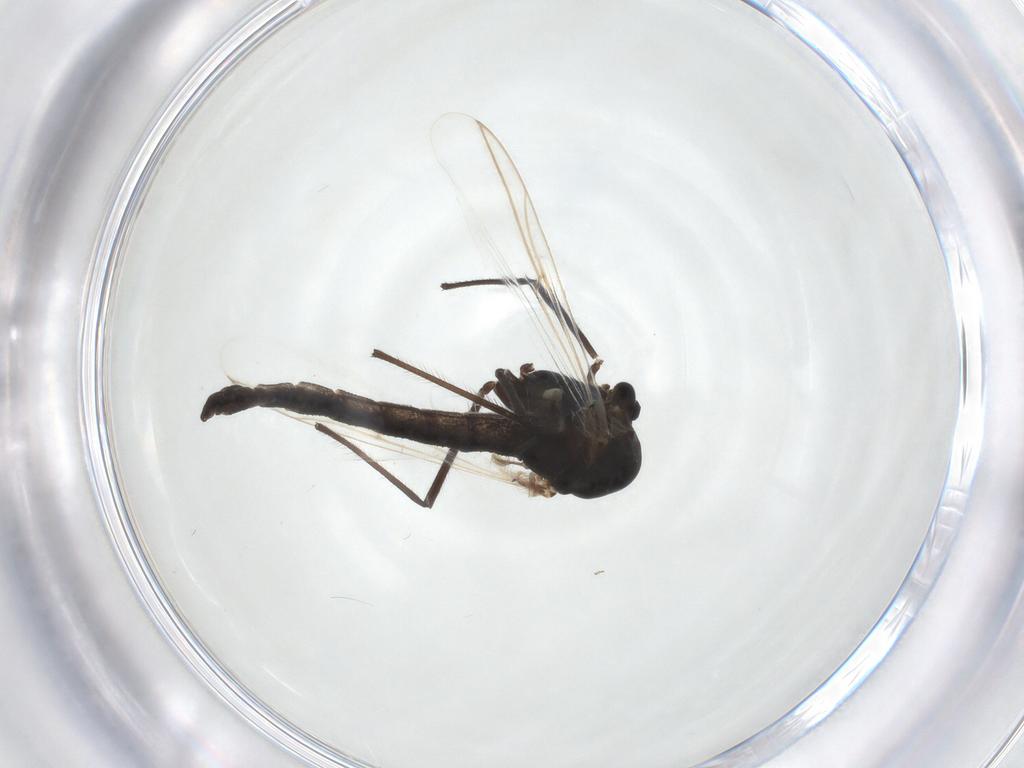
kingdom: Animalia
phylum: Arthropoda
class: Insecta
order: Diptera
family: Chironomidae
